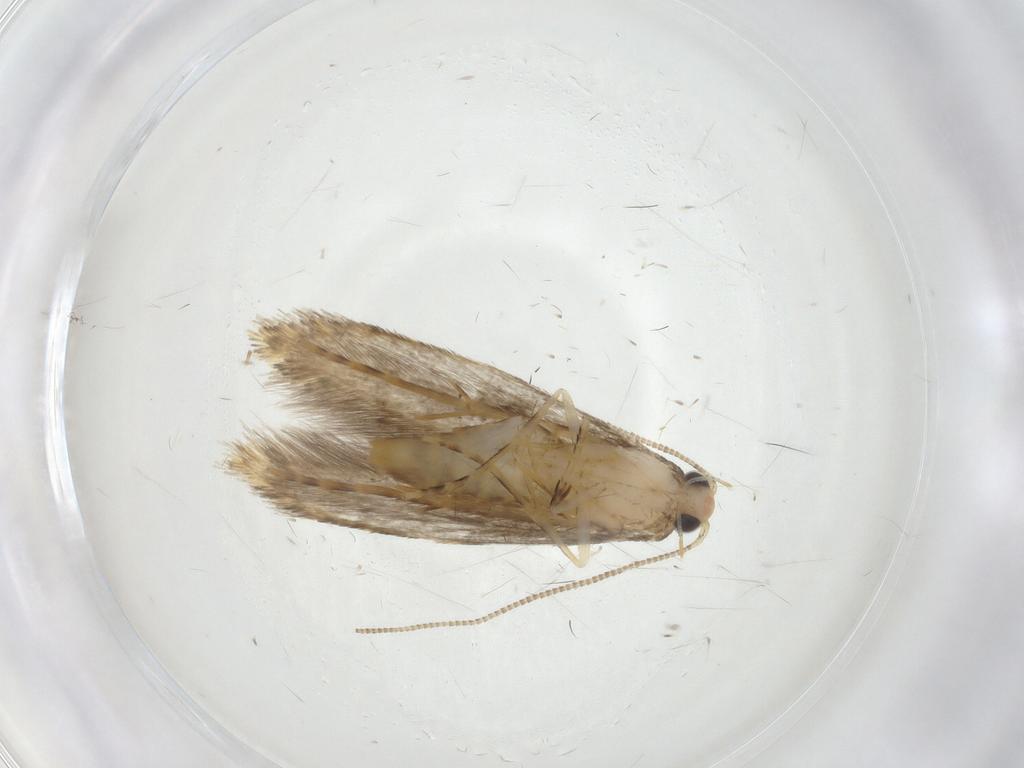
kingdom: Animalia
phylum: Arthropoda
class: Insecta
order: Lepidoptera
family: Tineidae
